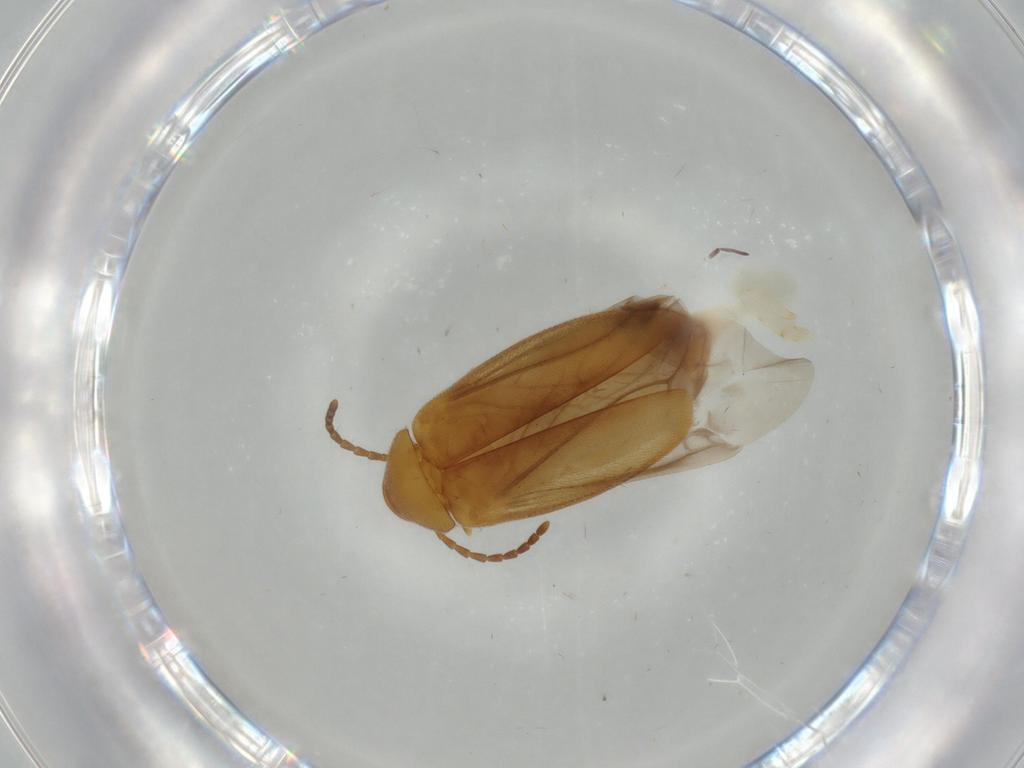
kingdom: Animalia
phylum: Arthropoda
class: Insecta
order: Coleoptera
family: Scraptiidae
